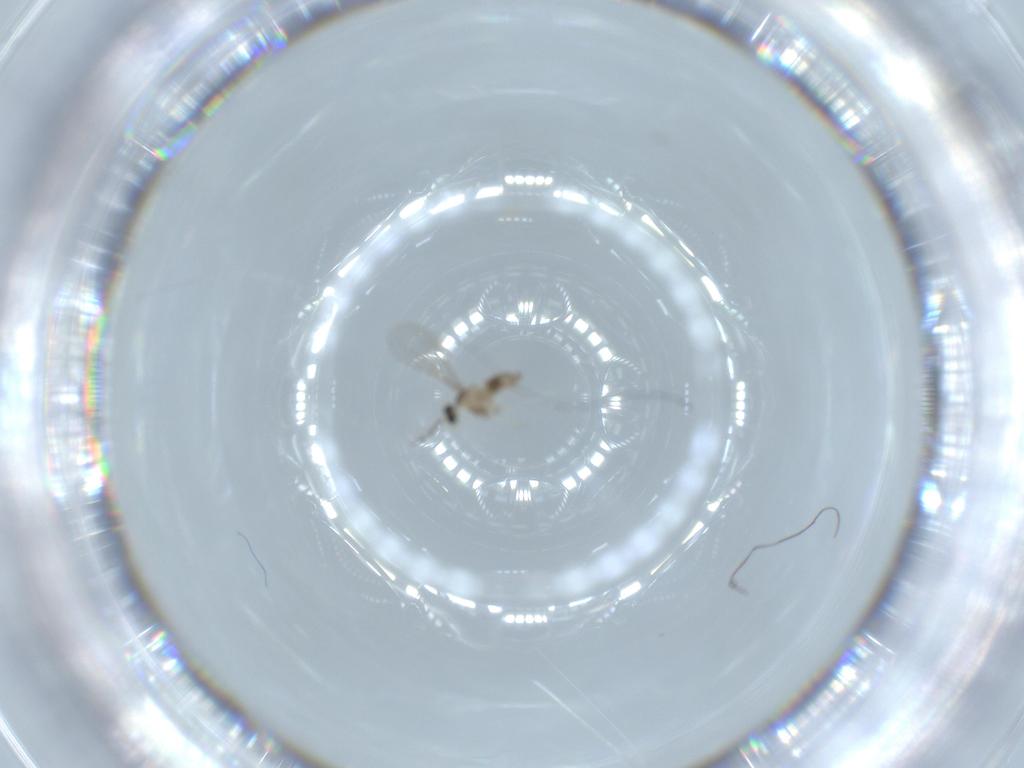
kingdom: Animalia
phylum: Arthropoda
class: Insecta
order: Diptera
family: Cecidomyiidae
